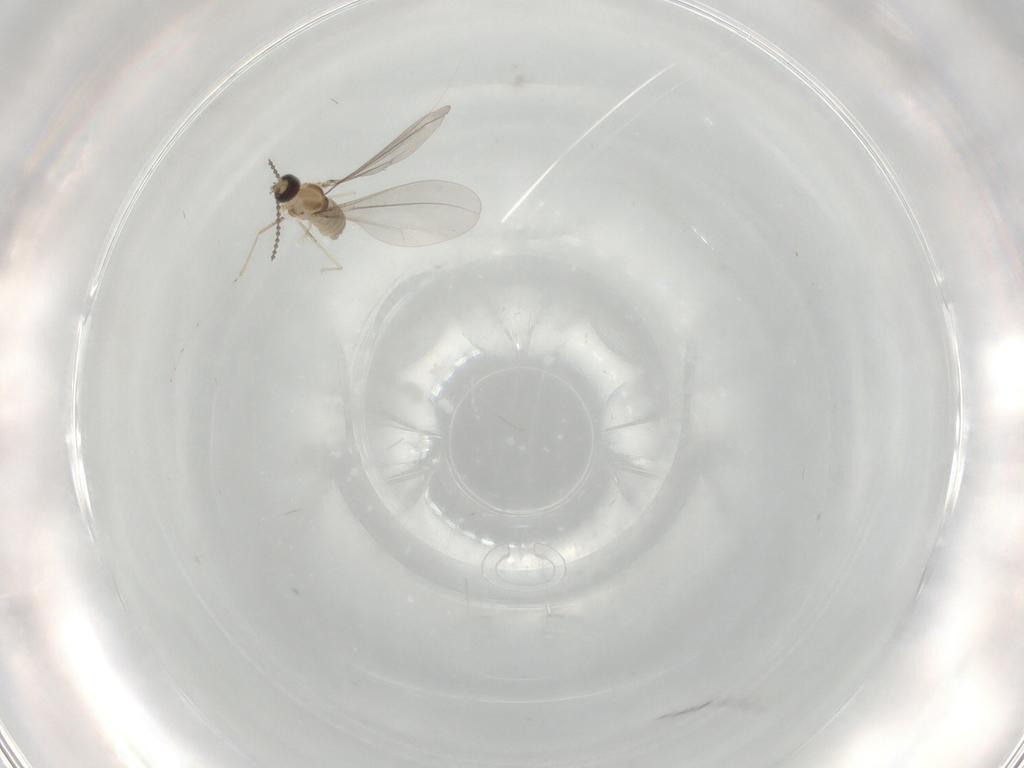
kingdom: Animalia
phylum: Arthropoda
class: Insecta
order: Diptera
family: Cecidomyiidae
